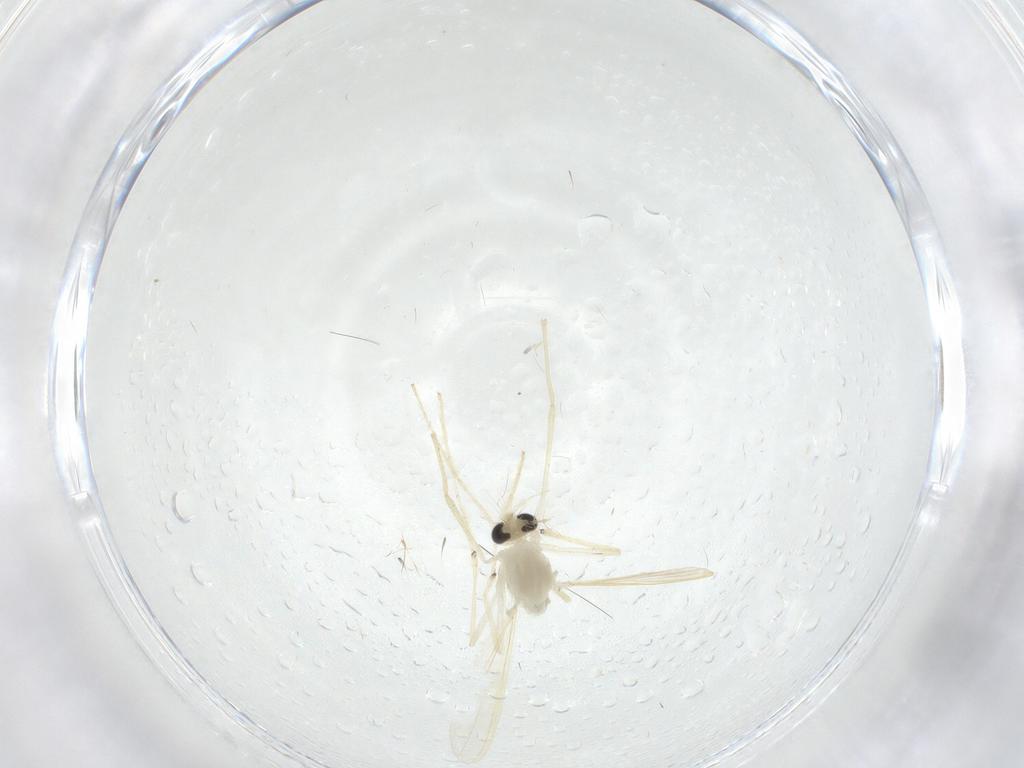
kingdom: Animalia
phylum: Arthropoda
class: Insecta
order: Diptera
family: Chironomidae
